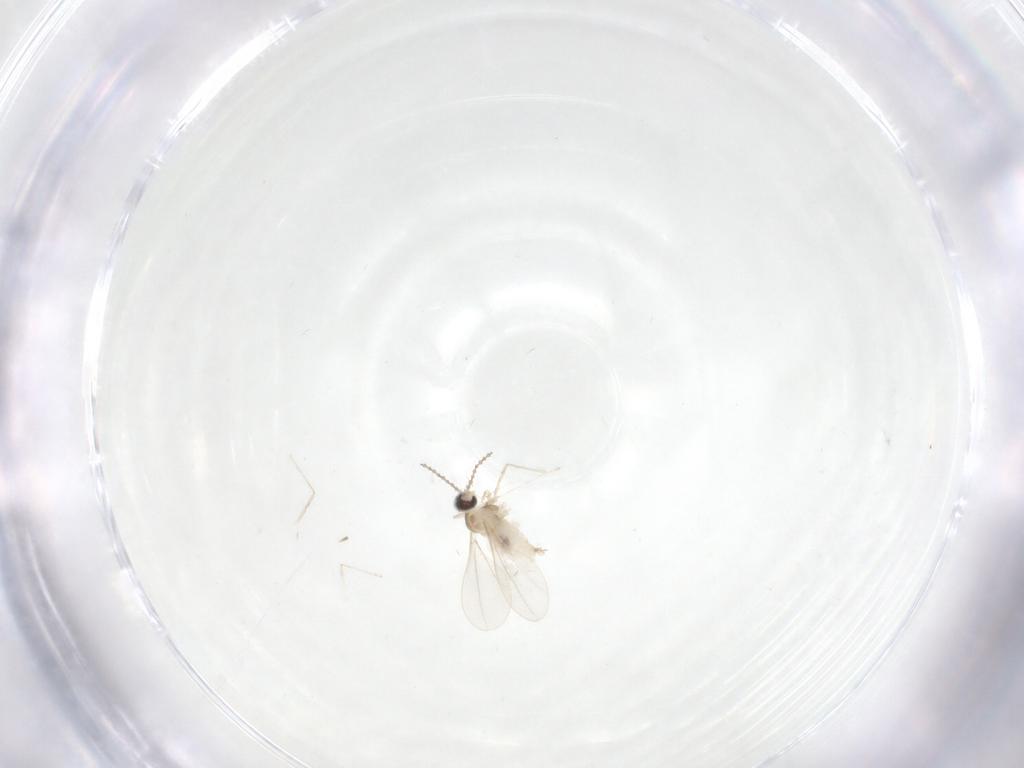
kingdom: Animalia
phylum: Arthropoda
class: Insecta
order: Diptera
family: Cecidomyiidae
